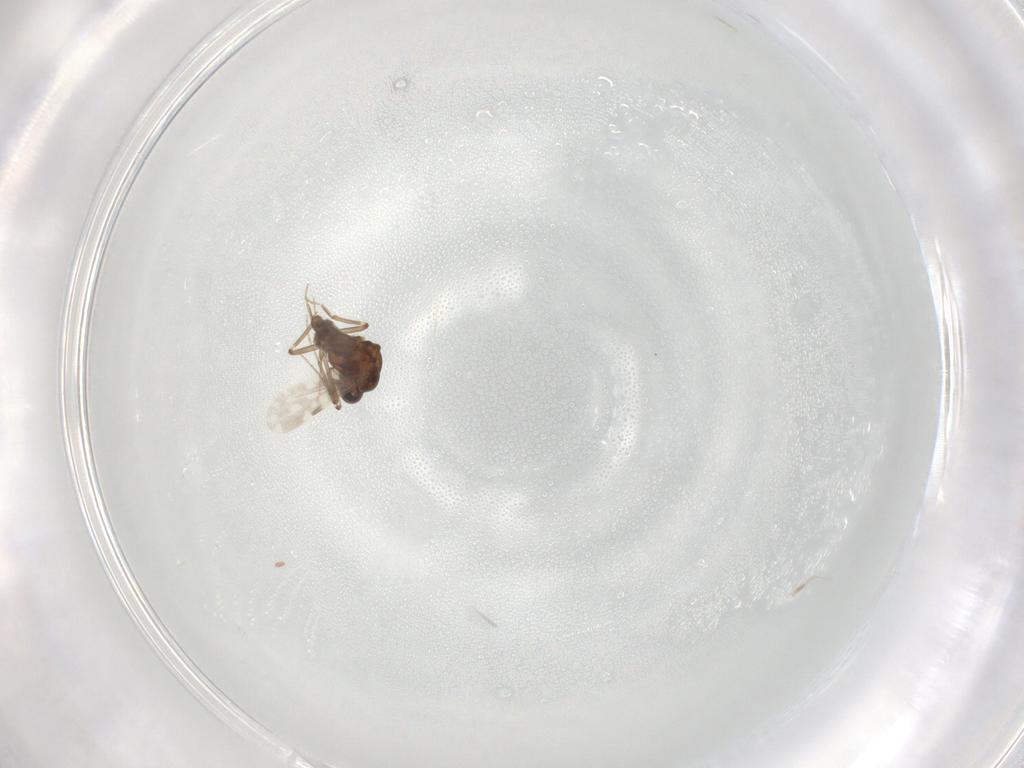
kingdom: Animalia
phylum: Arthropoda
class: Insecta
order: Diptera
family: Ceratopogonidae
